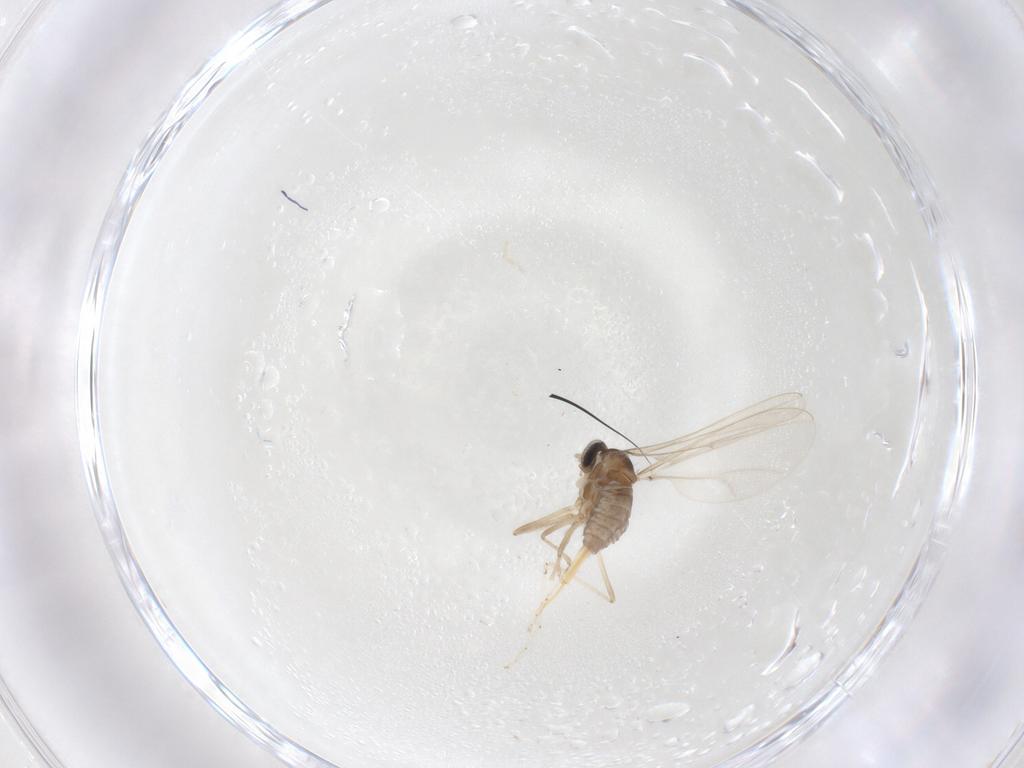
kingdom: Animalia
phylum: Arthropoda
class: Insecta
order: Diptera
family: Cecidomyiidae
